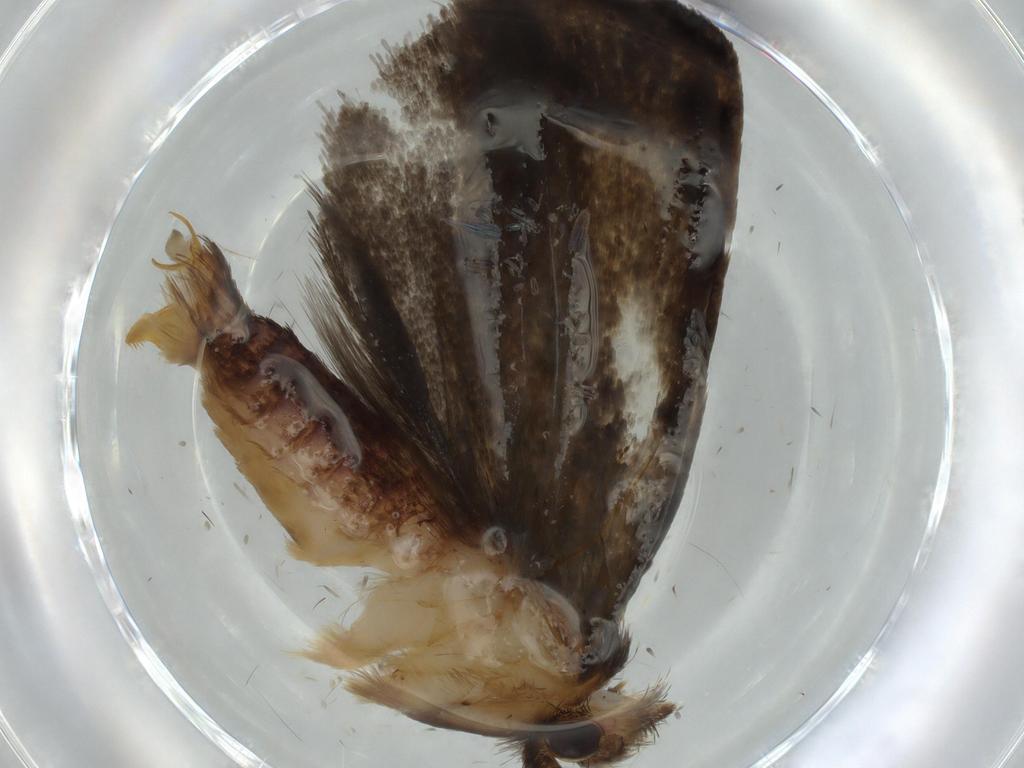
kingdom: Animalia
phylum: Arthropoda
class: Insecta
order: Lepidoptera
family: Tineidae
